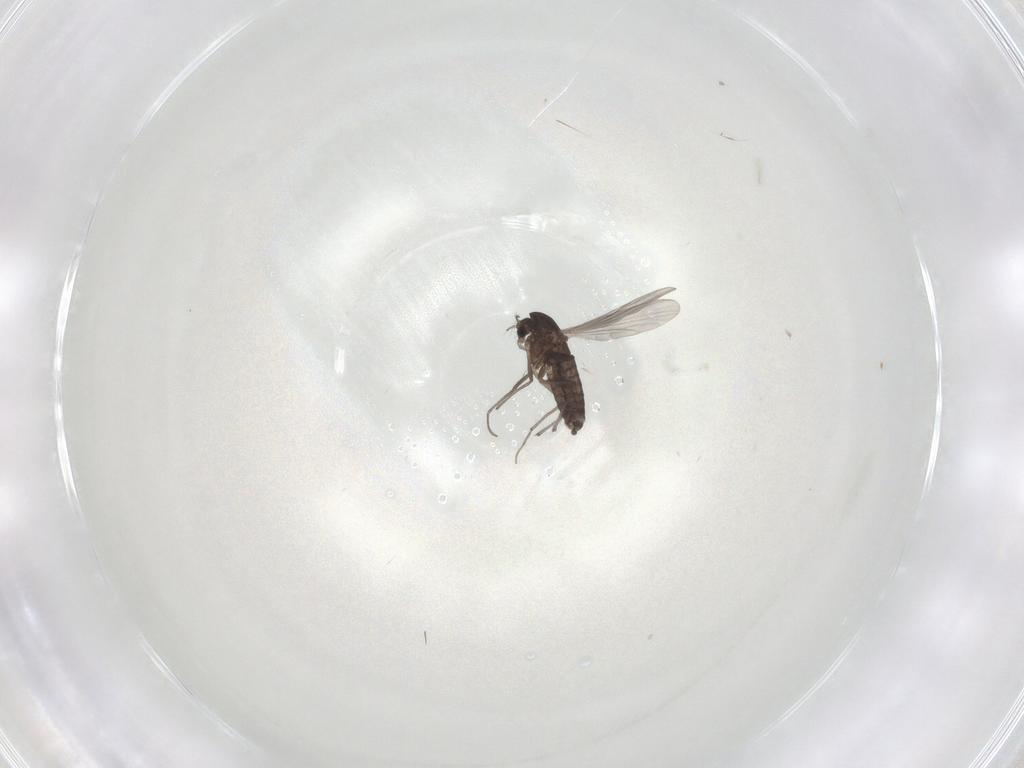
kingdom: Animalia
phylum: Arthropoda
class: Insecta
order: Diptera
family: Chironomidae
